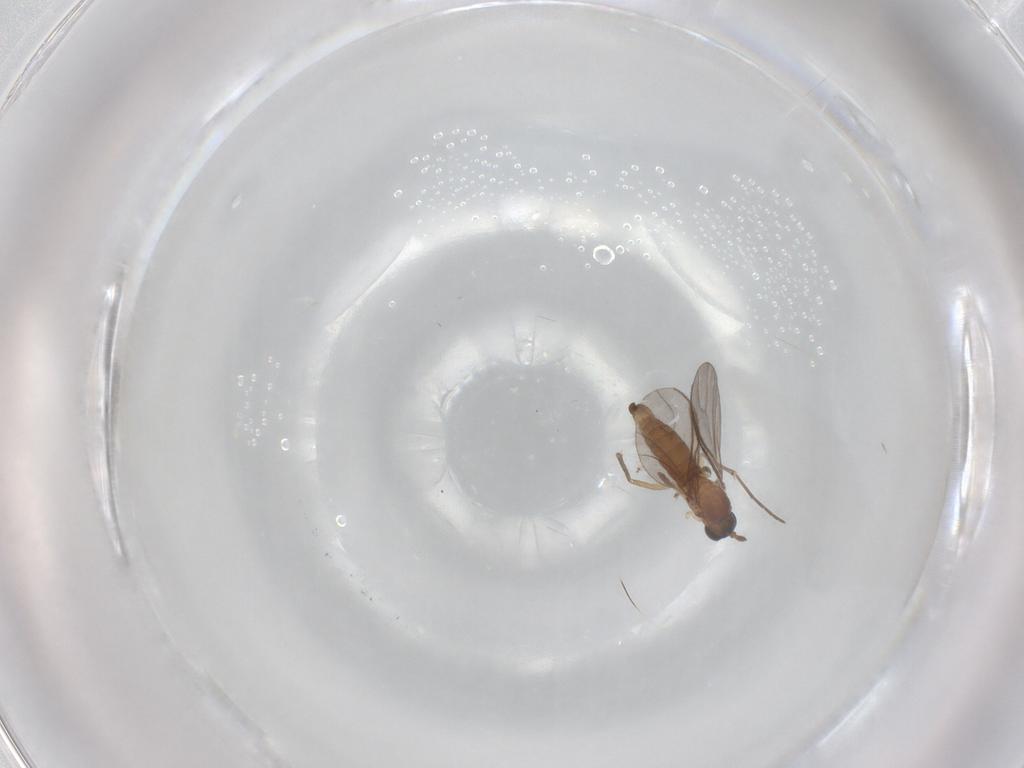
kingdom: Animalia
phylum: Arthropoda
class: Insecta
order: Diptera
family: Sciaridae
